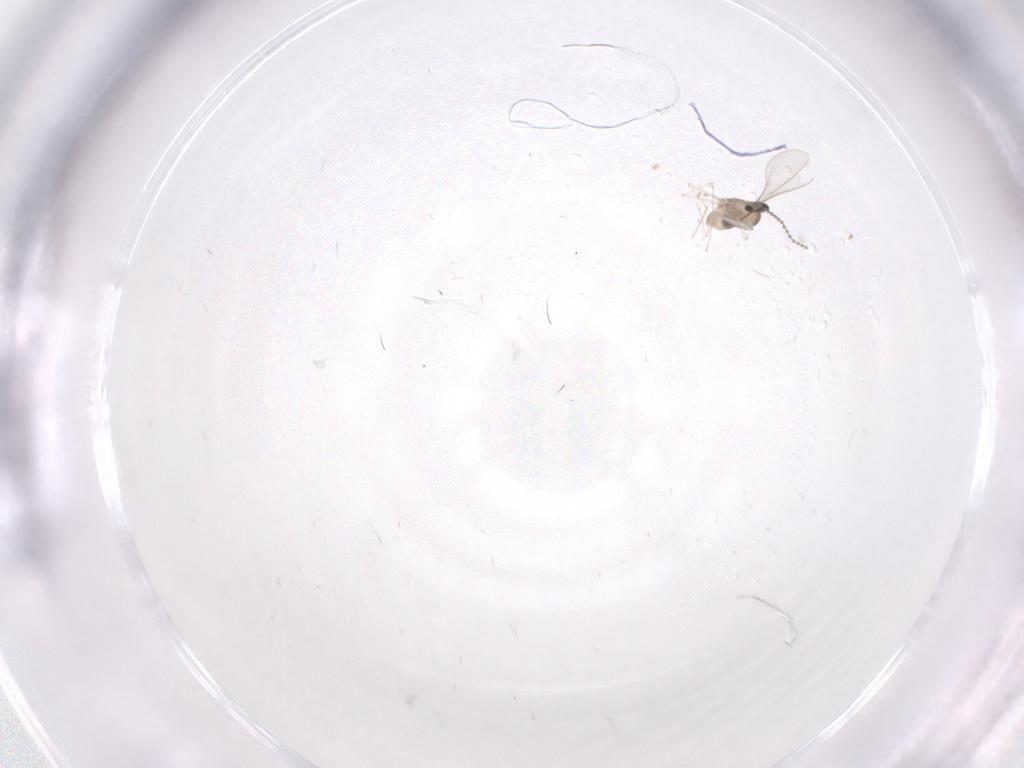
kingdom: Animalia
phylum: Arthropoda
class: Insecta
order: Diptera
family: Cecidomyiidae
